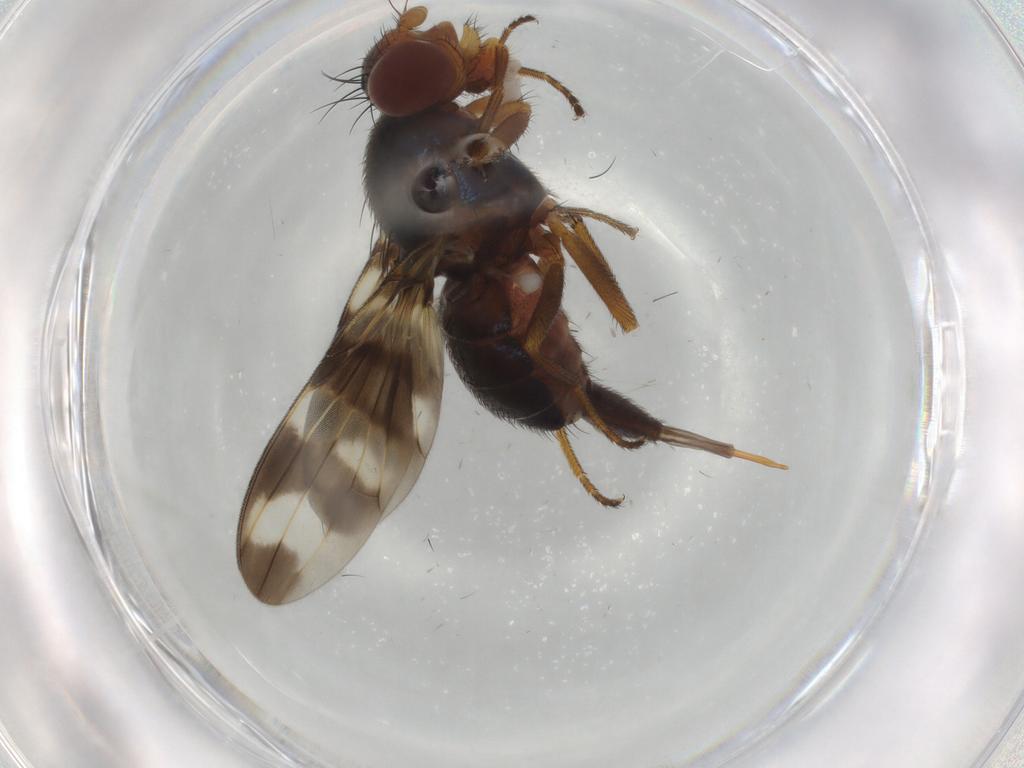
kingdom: Animalia
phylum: Arthropoda
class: Insecta
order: Diptera
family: Ulidiidae
